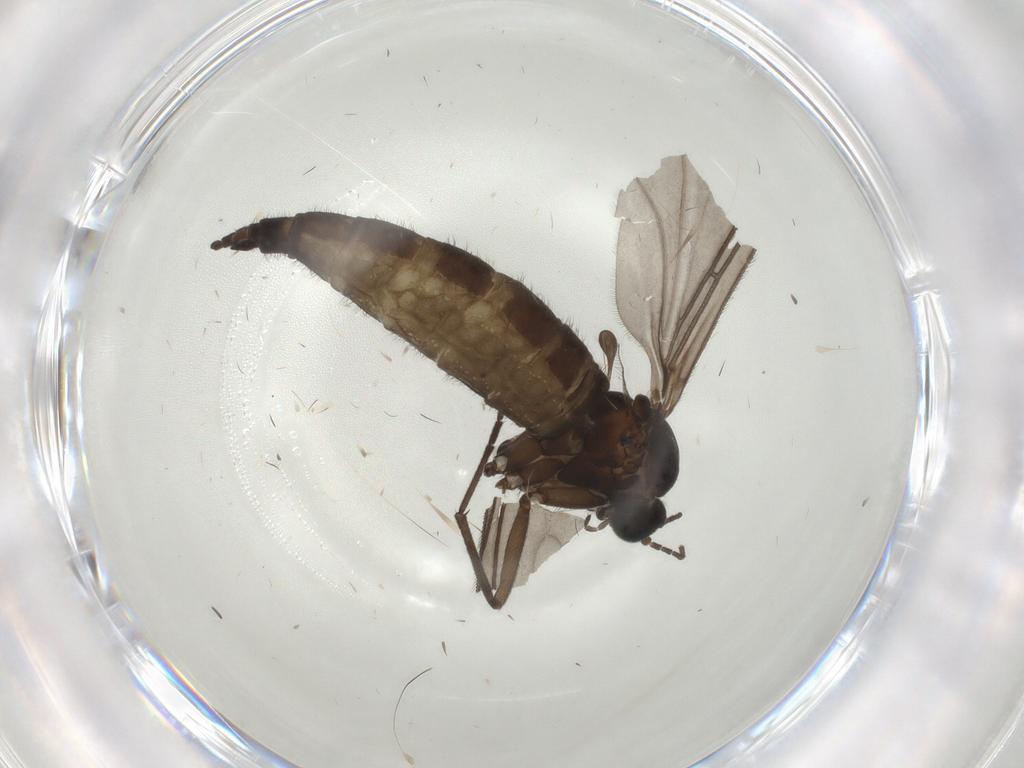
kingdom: Animalia
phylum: Arthropoda
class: Insecta
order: Diptera
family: Sciaridae
